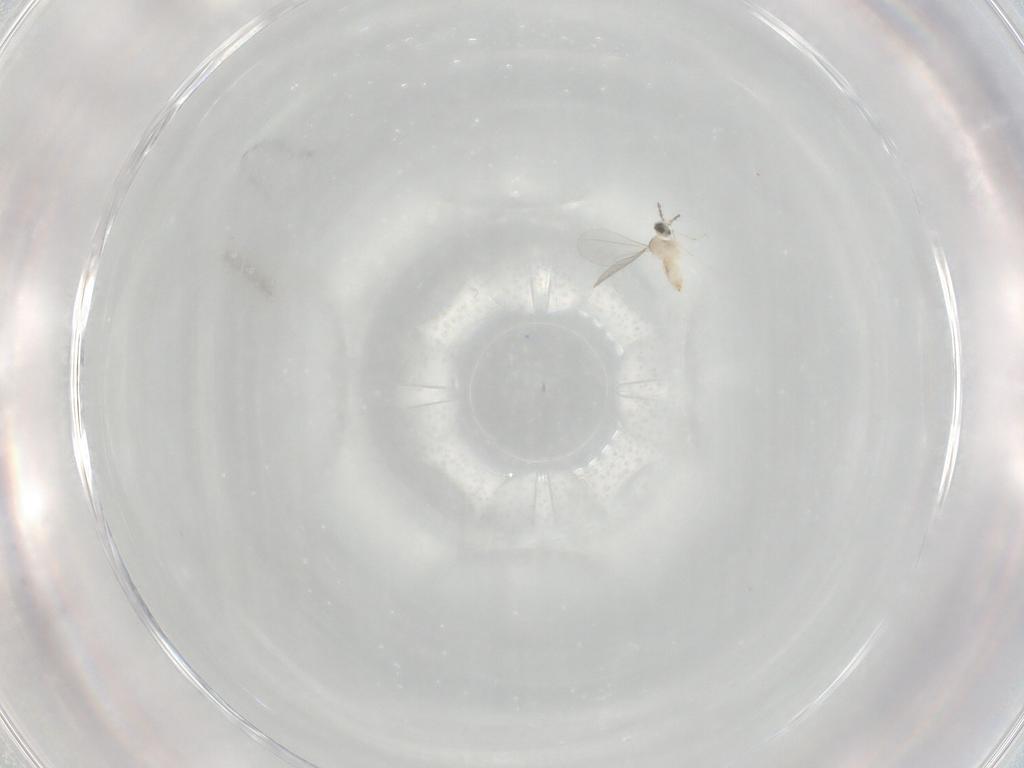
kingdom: Animalia
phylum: Arthropoda
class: Insecta
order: Diptera
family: Cecidomyiidae
